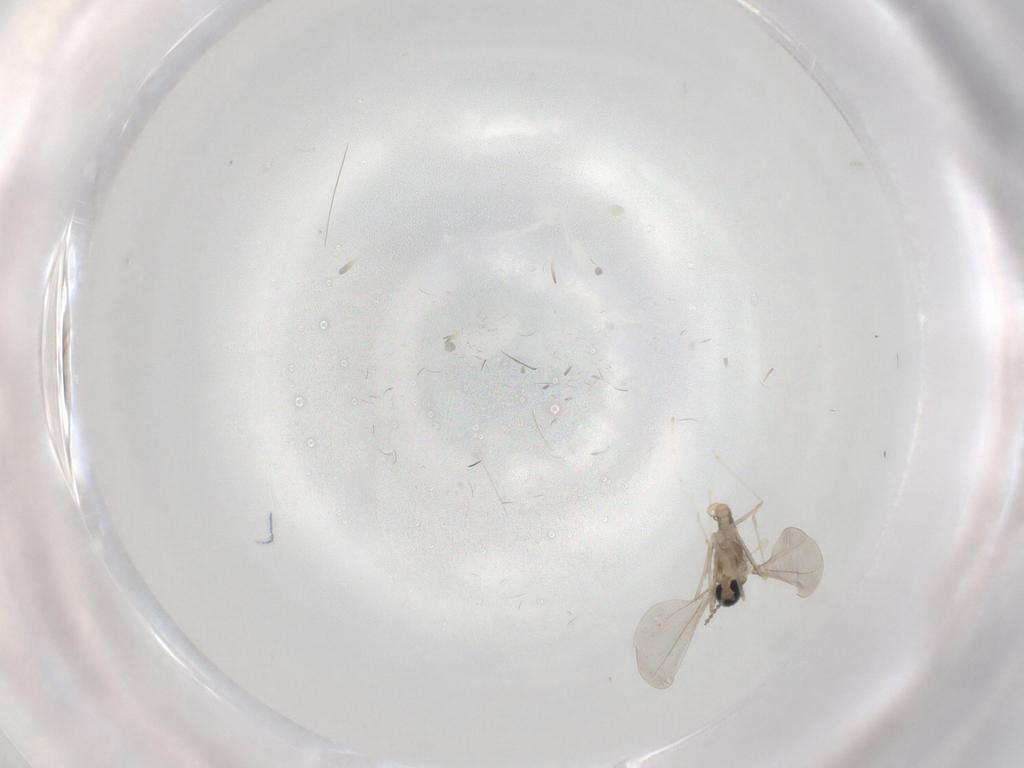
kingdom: Animalia
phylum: Arthropoda
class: Insecta
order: Diptera
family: Cecidomyiidae
